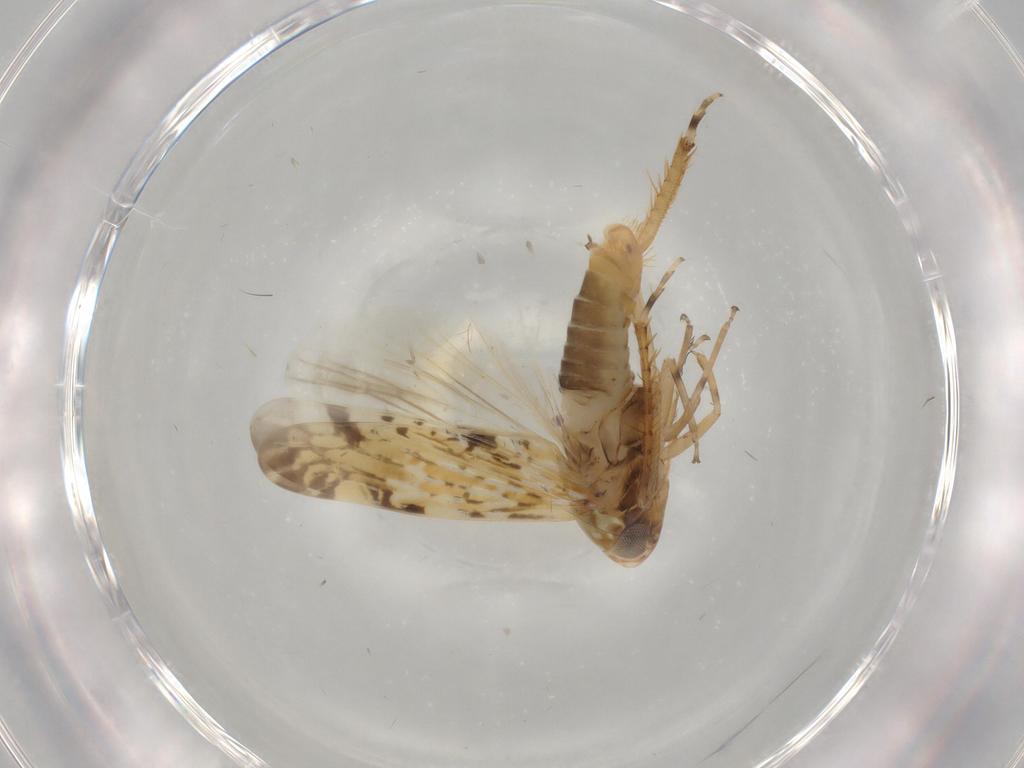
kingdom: Animalia
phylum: Arthropoda
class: Insecta
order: Hemiptera
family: Cicadellidae
